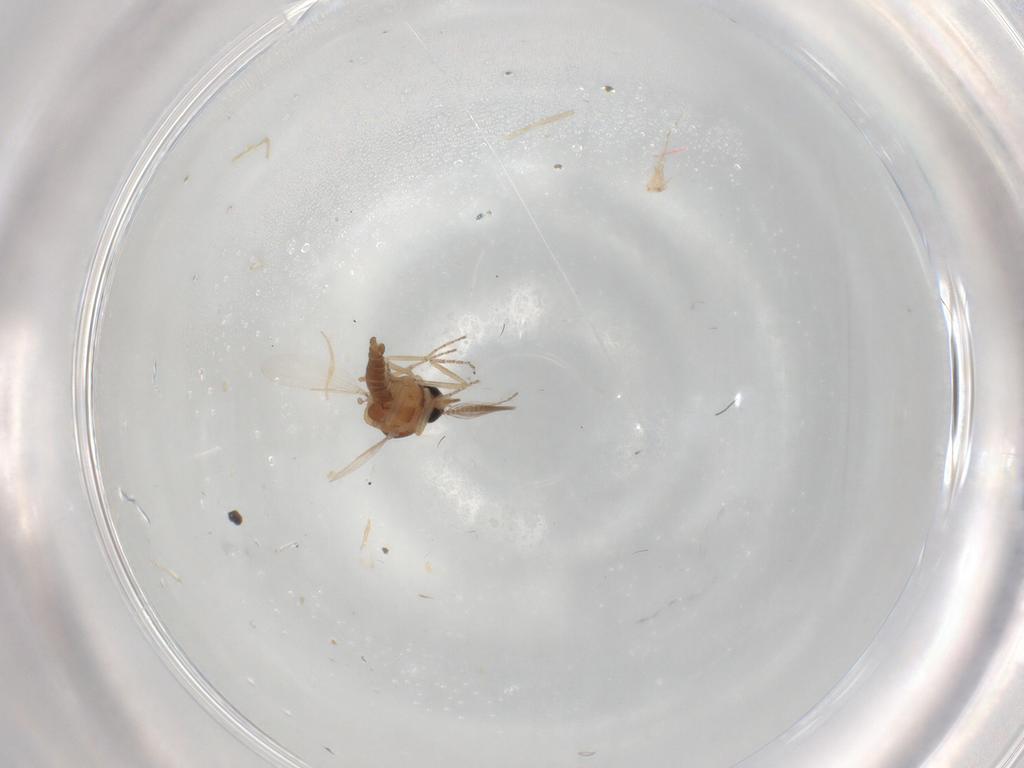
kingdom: Animalia
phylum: Arthropoda
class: Insecta
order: Diptera
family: Ceratopogonidae
